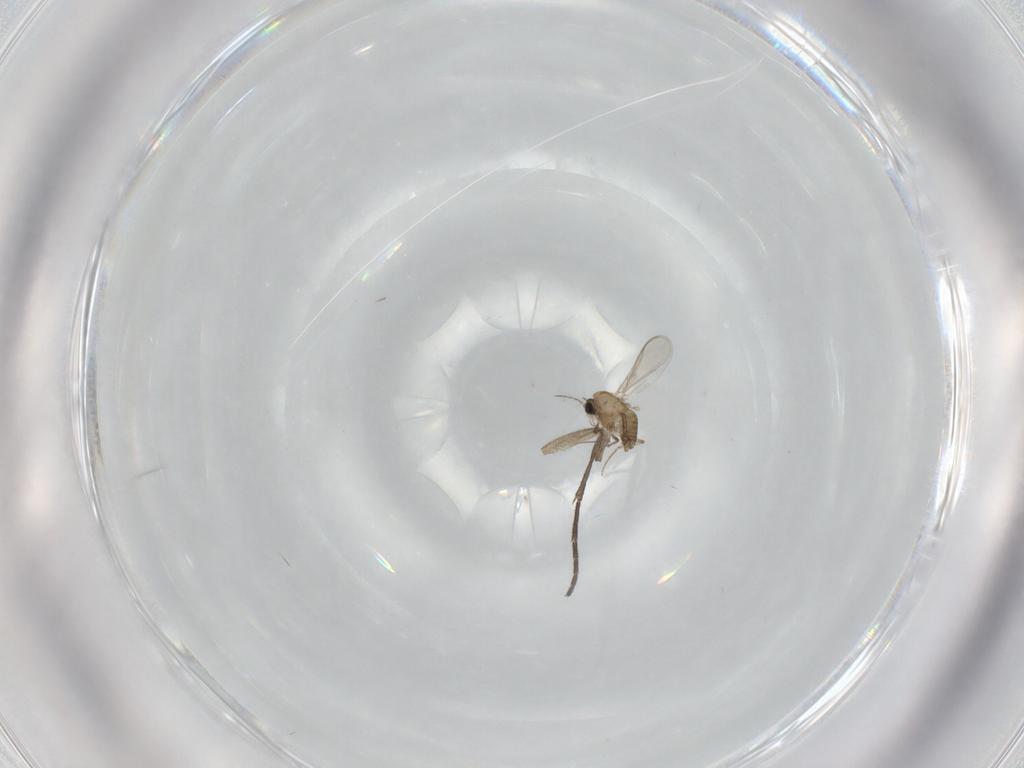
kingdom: Animalia
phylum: Arthropoda
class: Insecta
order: Diptera
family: Chironomidae
